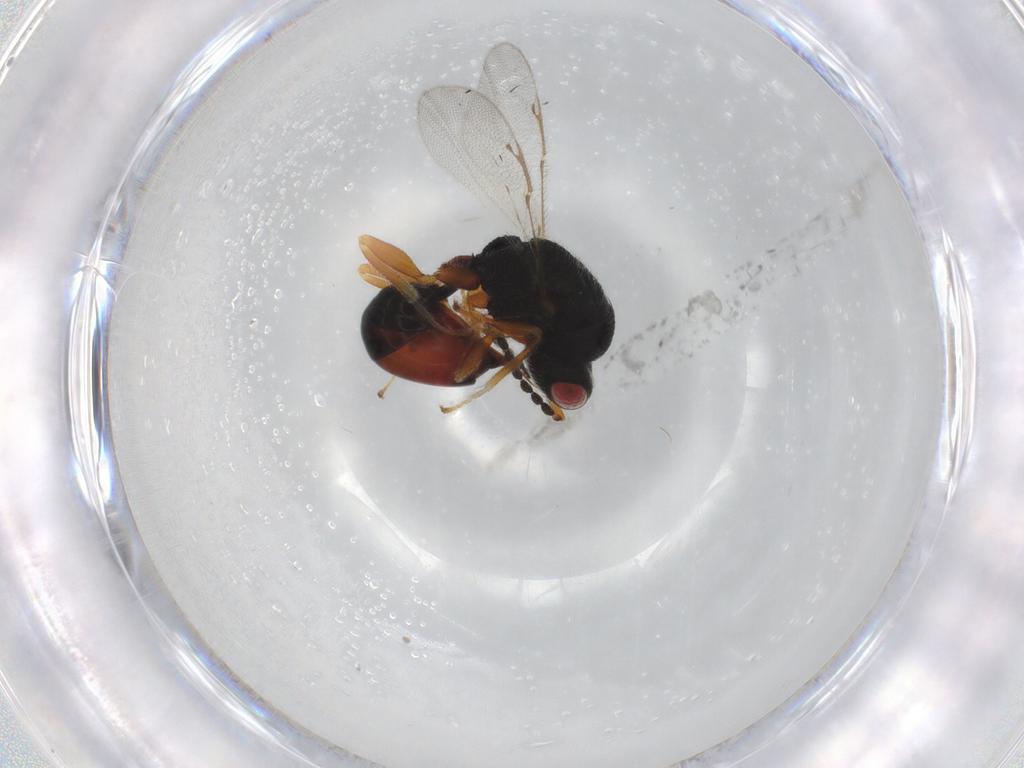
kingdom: Animalia
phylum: Arthropoda
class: Insecta
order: Hymenoptera
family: Eurytomidae
